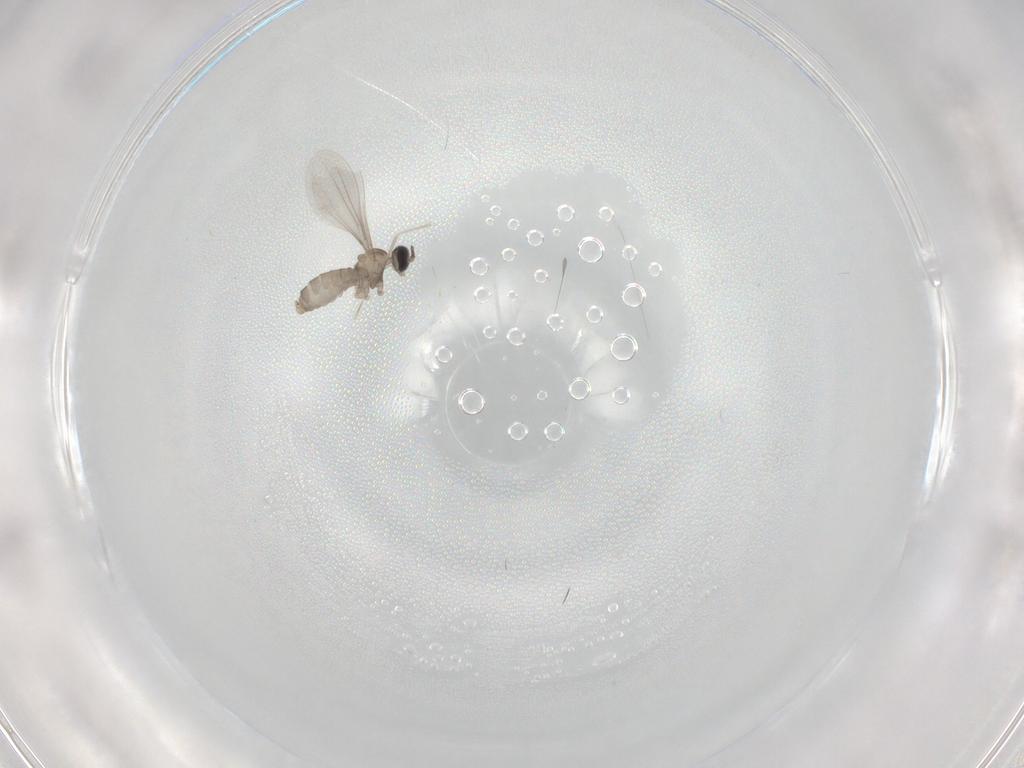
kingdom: Animalia
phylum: Arthropoda
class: Insecta
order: Diptera
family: Cecidomyiidae
